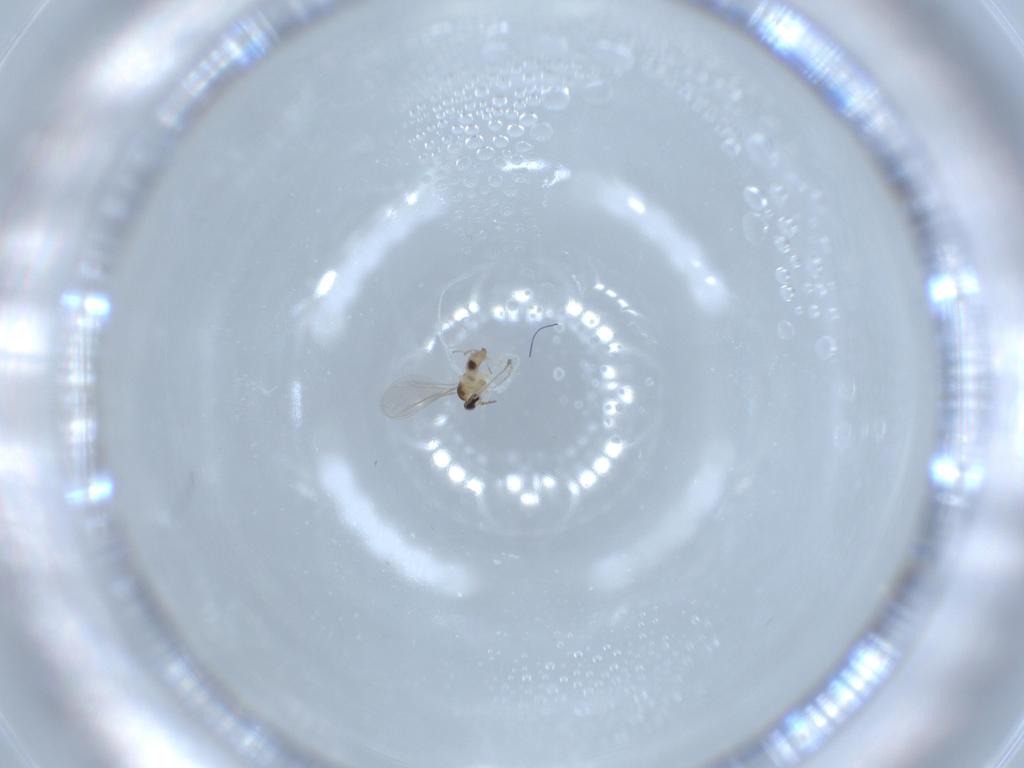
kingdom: Animalia
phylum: Arthropoda
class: Insecta
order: Diptera
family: Cecidomyiidae
